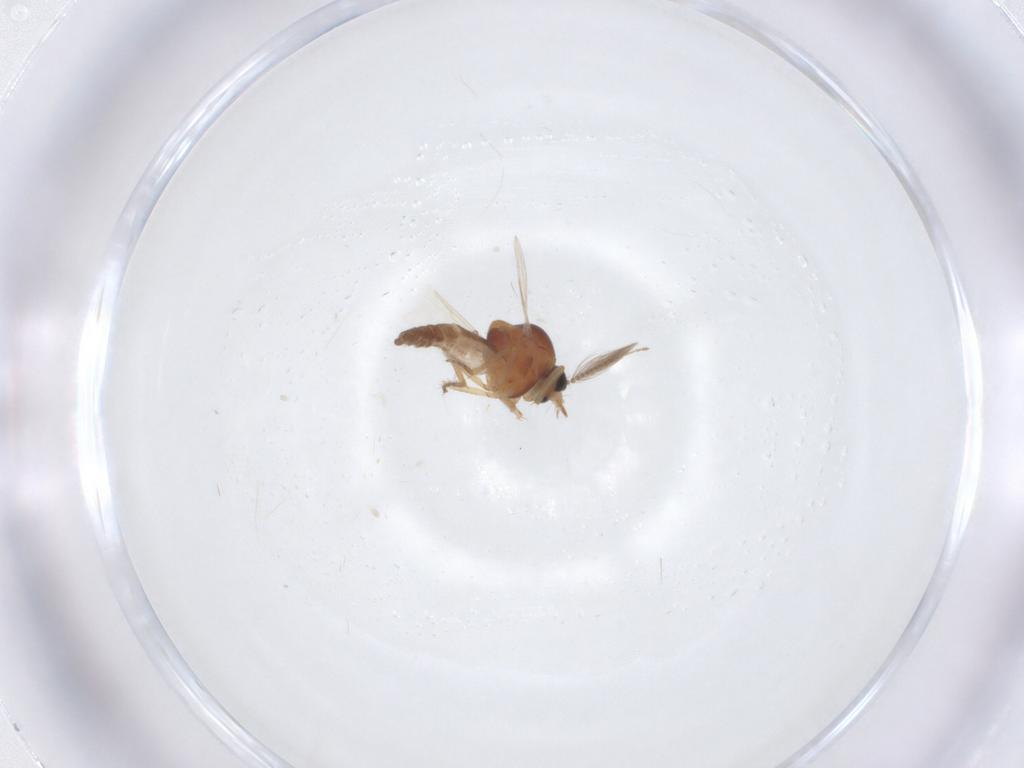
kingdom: Animalia
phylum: Arthropoda
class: Insecta
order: Diptera
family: Ceratopogonidae
